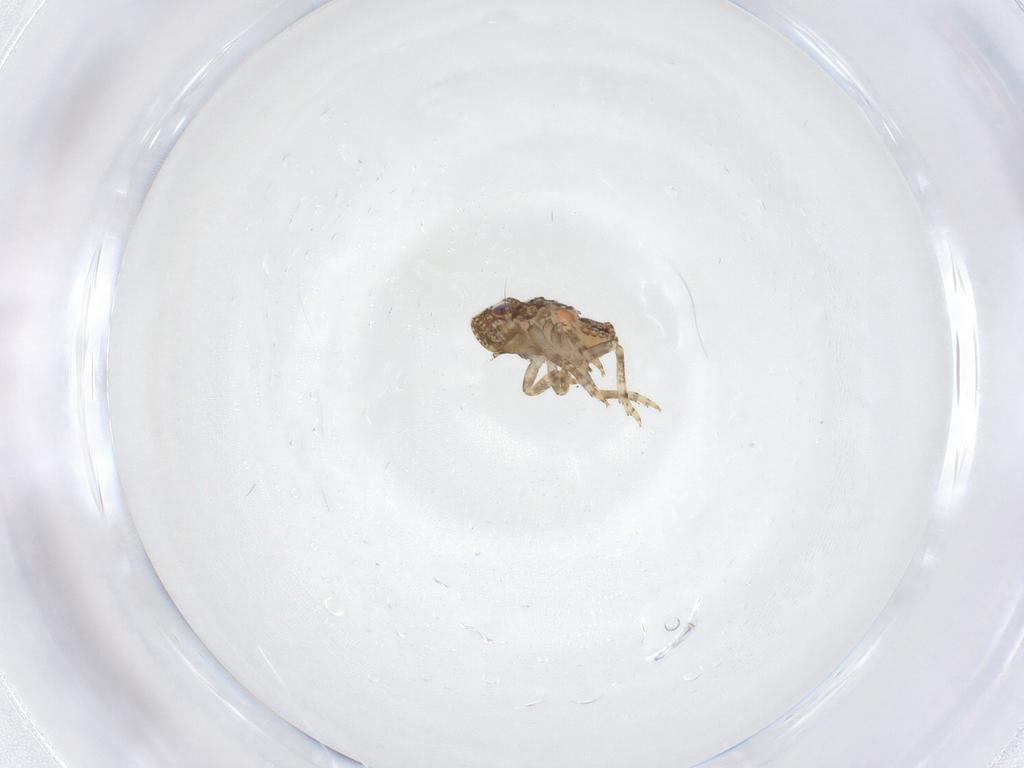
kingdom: Animalia
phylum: Arthropoda
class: Insecta
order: Hemiptera
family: Nogodinidae
